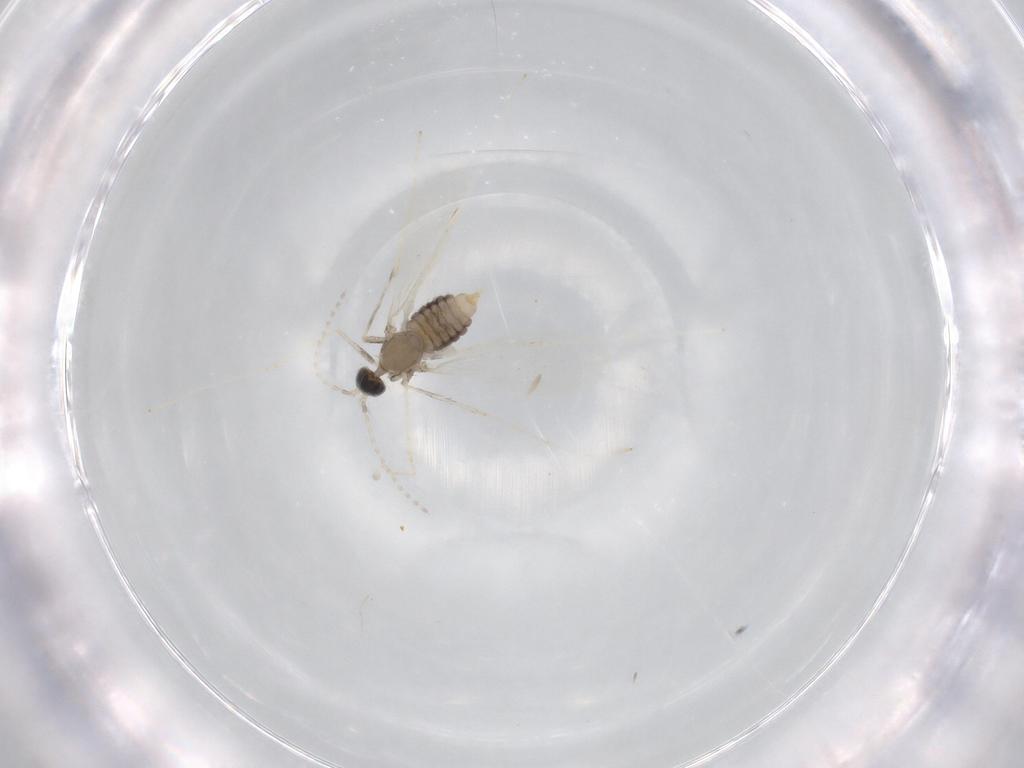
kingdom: Animalia
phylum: Arthropoda
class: Insecta
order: Diptera
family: Cecidomyiidae
